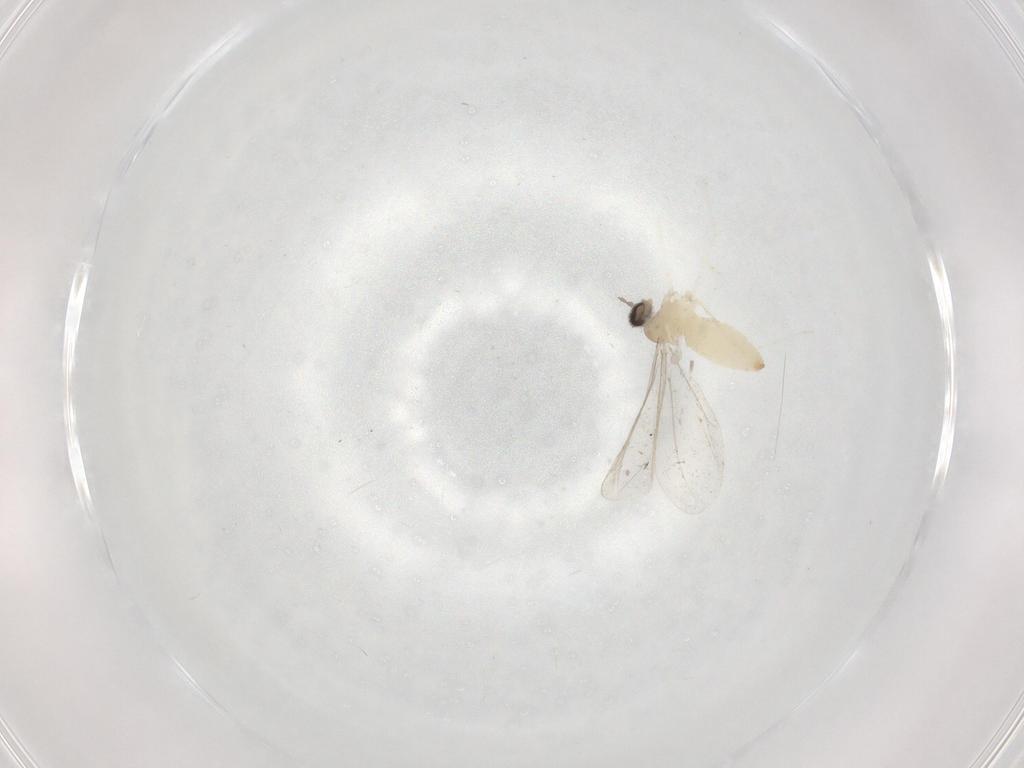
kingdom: Animalia
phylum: Arthropoda
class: Insecta
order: Diptera
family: Cecidomyiidae
